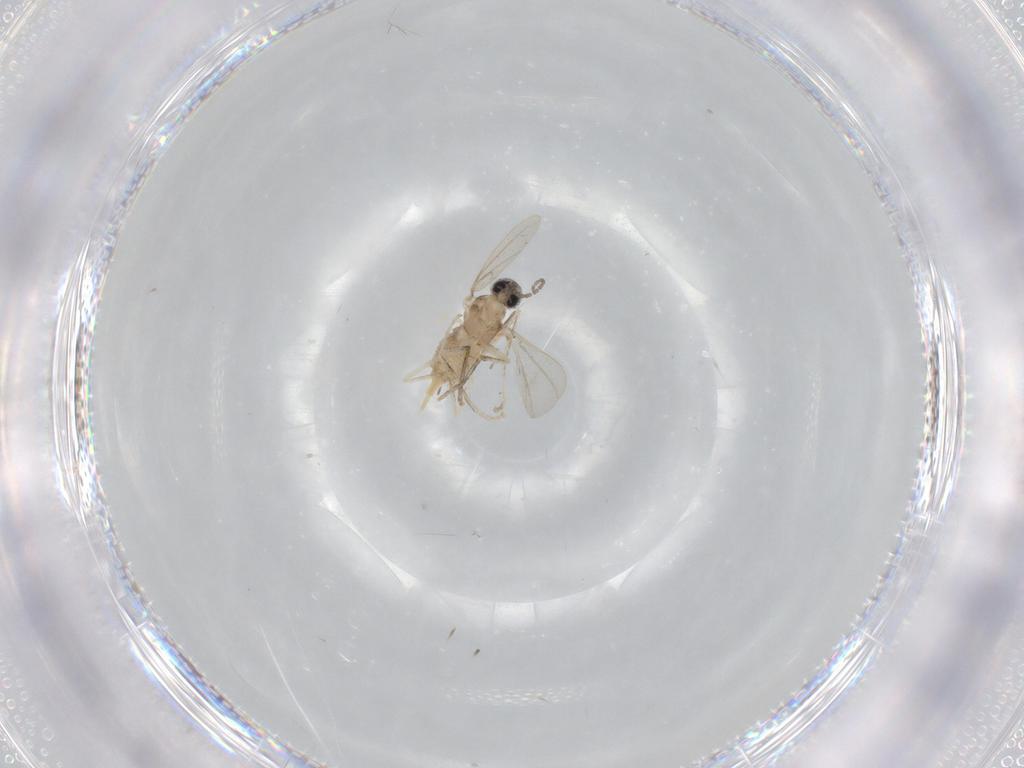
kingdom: Animalia
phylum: Arthropoda
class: Insecta
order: Diptera
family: Cecidomyiidae
